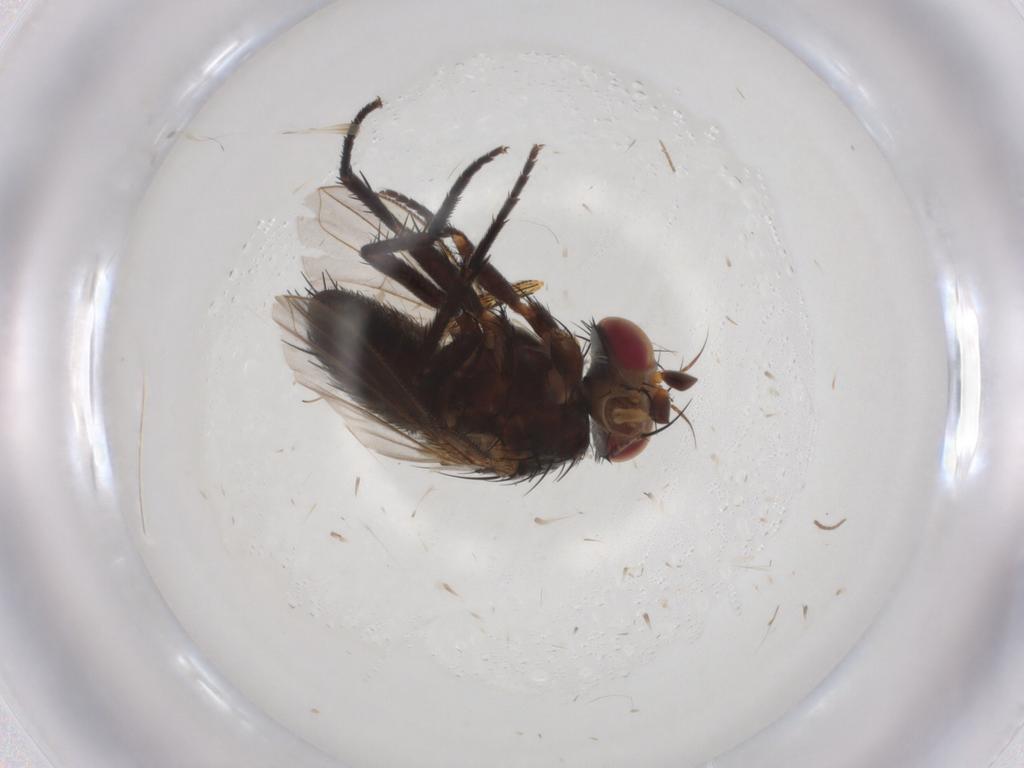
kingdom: Animalia
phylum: Arthropoda
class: Insecta
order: Diptera
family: Tachinidae
